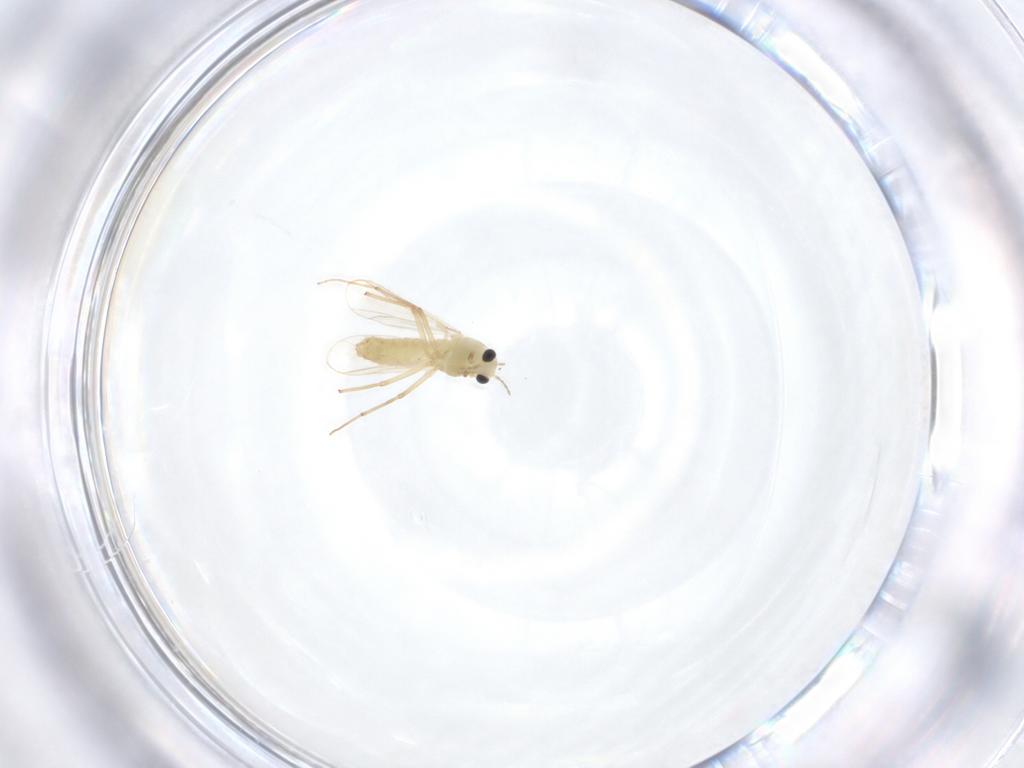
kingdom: Animalia
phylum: Arthropoda
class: Insecta
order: Diptera
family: Chironomidae
